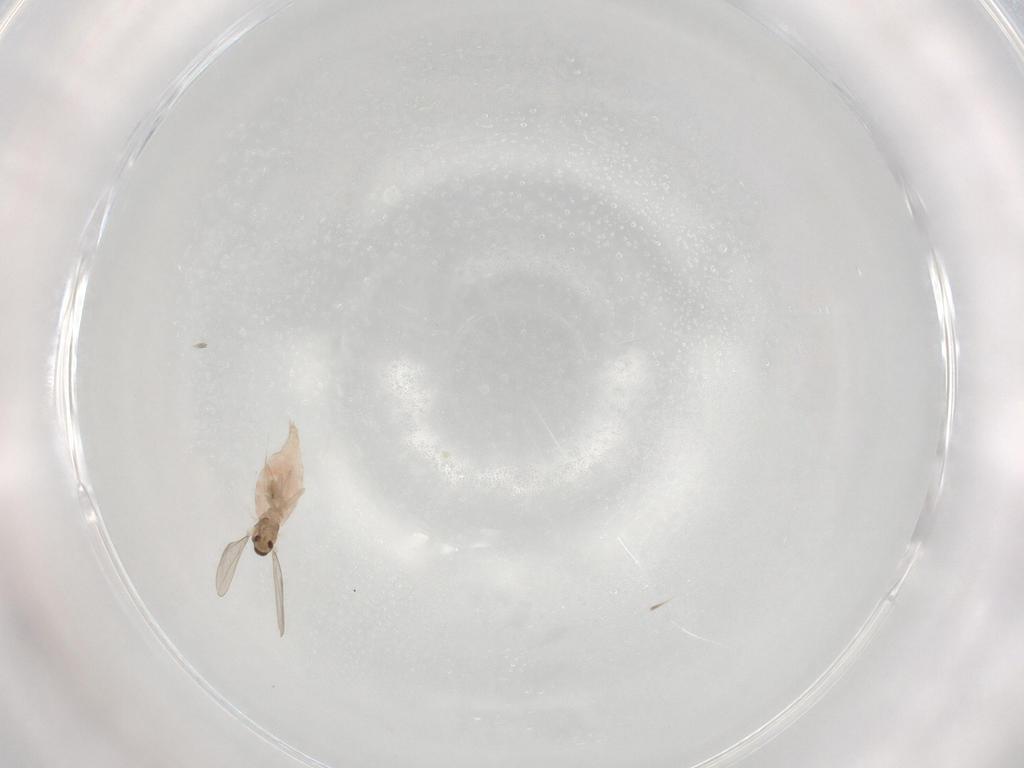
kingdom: Animalia
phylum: Arthropoda
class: Insecta
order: Diptera
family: Cecidomyiidae
